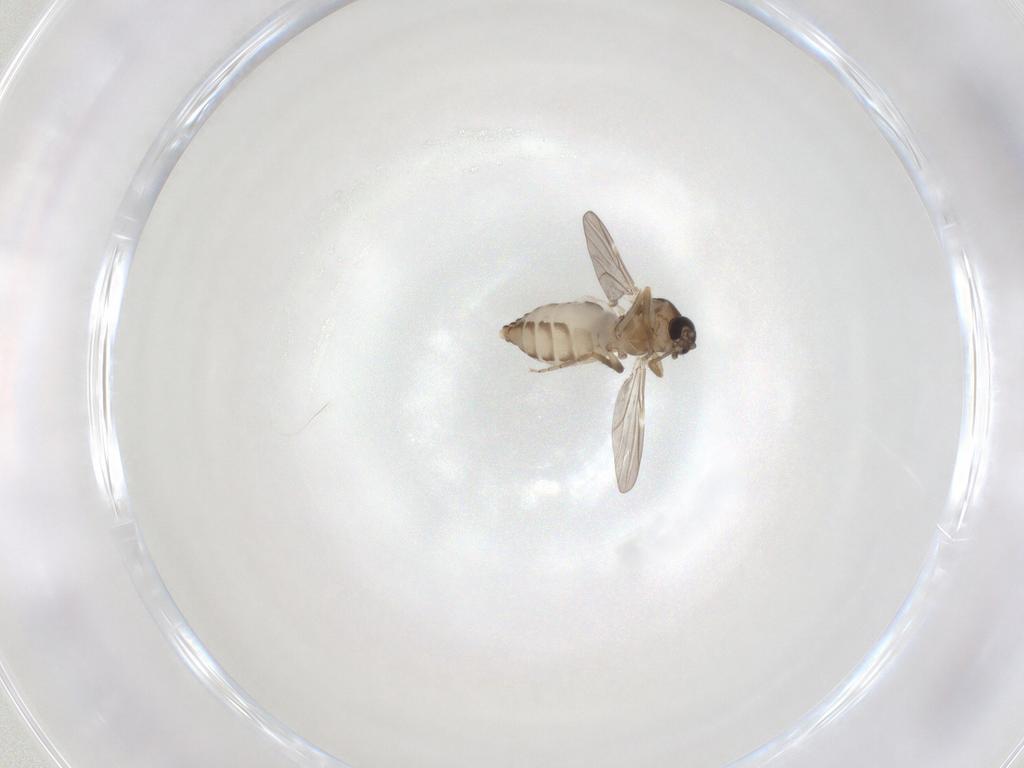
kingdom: Animalia
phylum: Arthropoda
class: Insecta
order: Diptera
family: Ceratopogonidae
